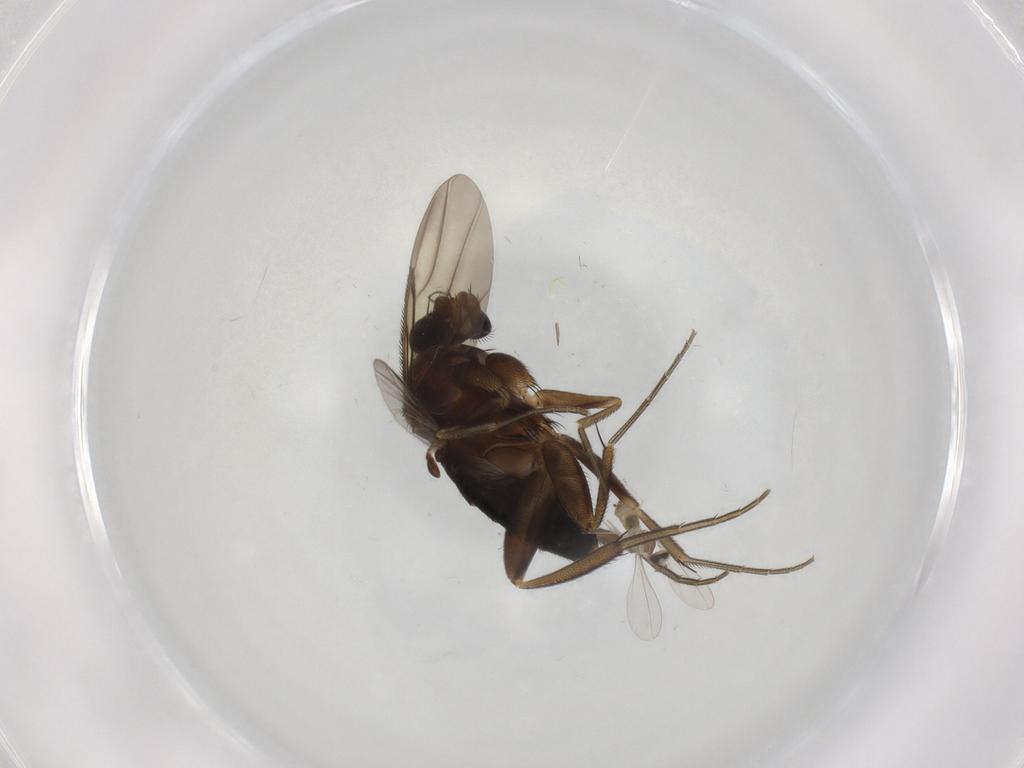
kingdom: Animalia
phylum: Arthropoda
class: Insecta
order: Diptera
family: Phoridae
